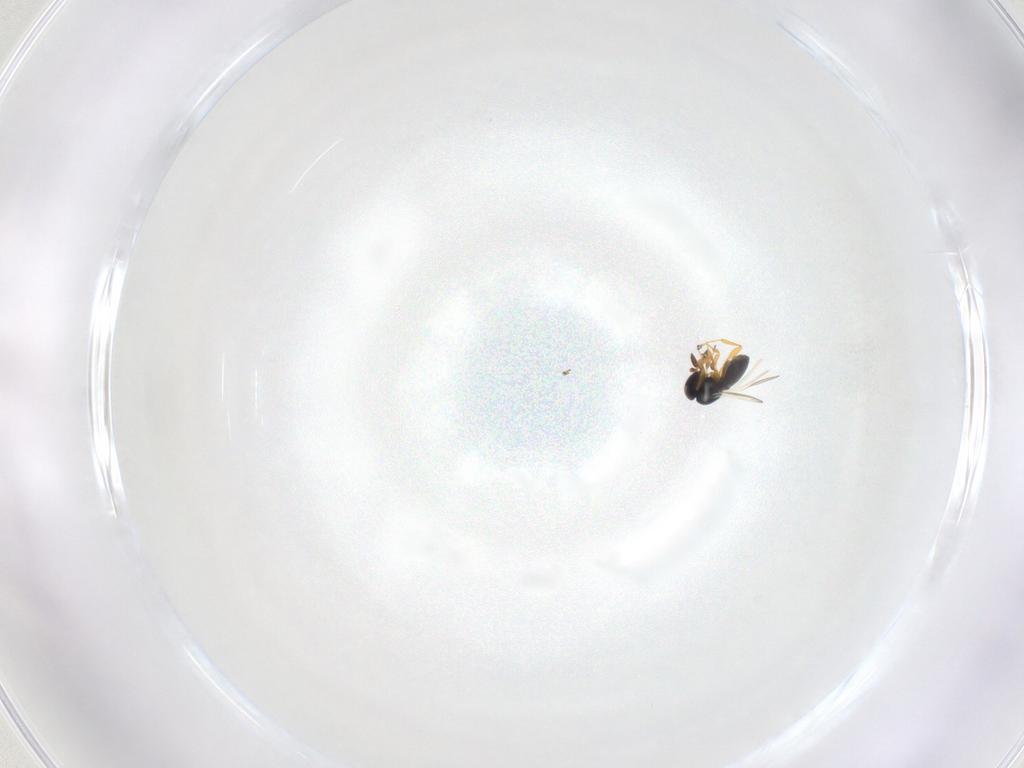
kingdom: Animalia
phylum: Arthropoda
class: Insecta
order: Hymenoptera
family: Platygastridae
